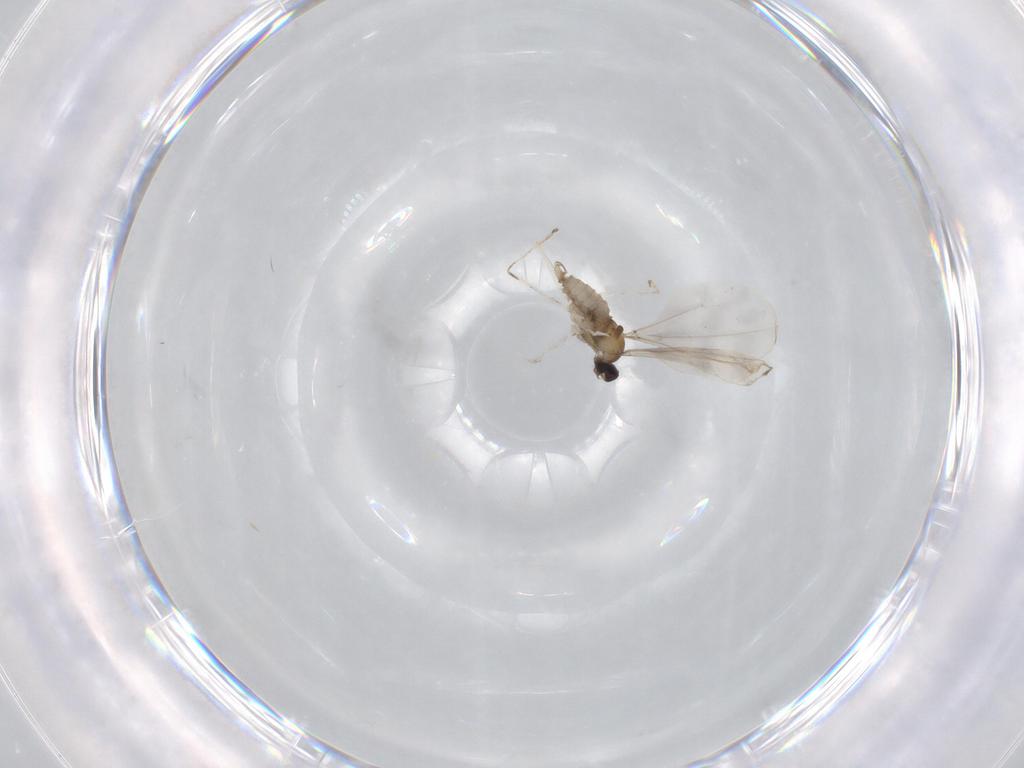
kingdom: Animalia
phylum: Arthropoda
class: Insecta
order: Diptera
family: Cecidomyiidae
